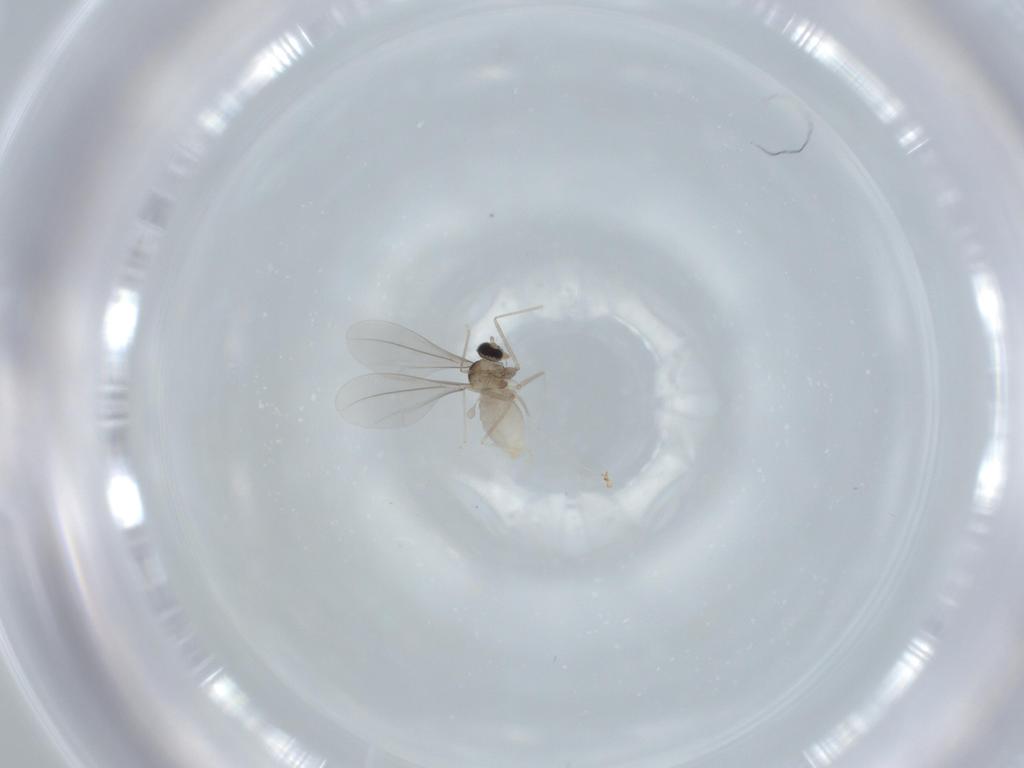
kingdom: Animalia
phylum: Arthropoda
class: Insecta
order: Diptera
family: Cecidomyiidae
